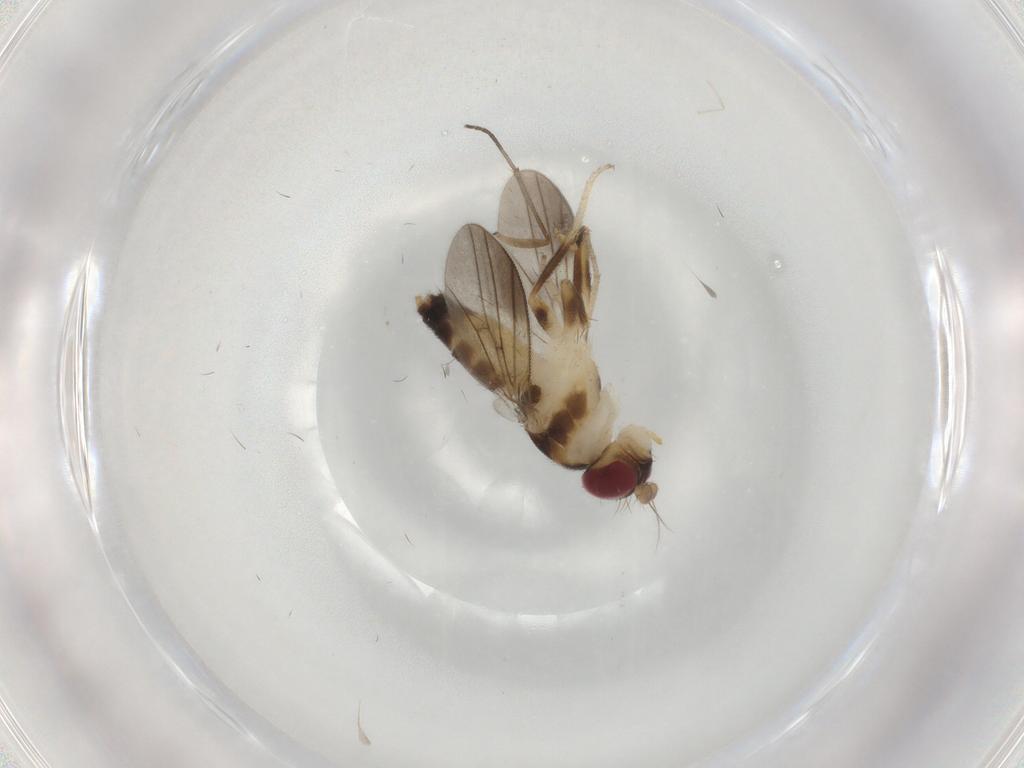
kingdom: Animalia
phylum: Arthropoda
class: Insecta
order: Diptera
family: Clusiidae
